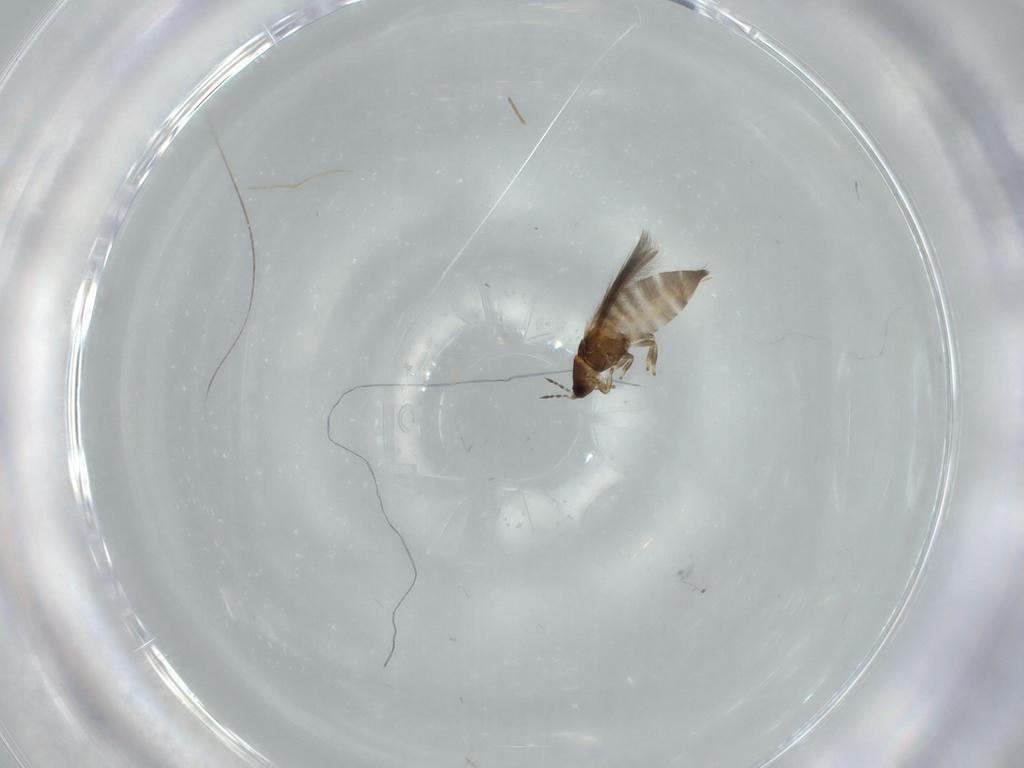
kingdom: Animalia
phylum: Arthropoda
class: Insecta
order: Thysanoptera
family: Thripidae
